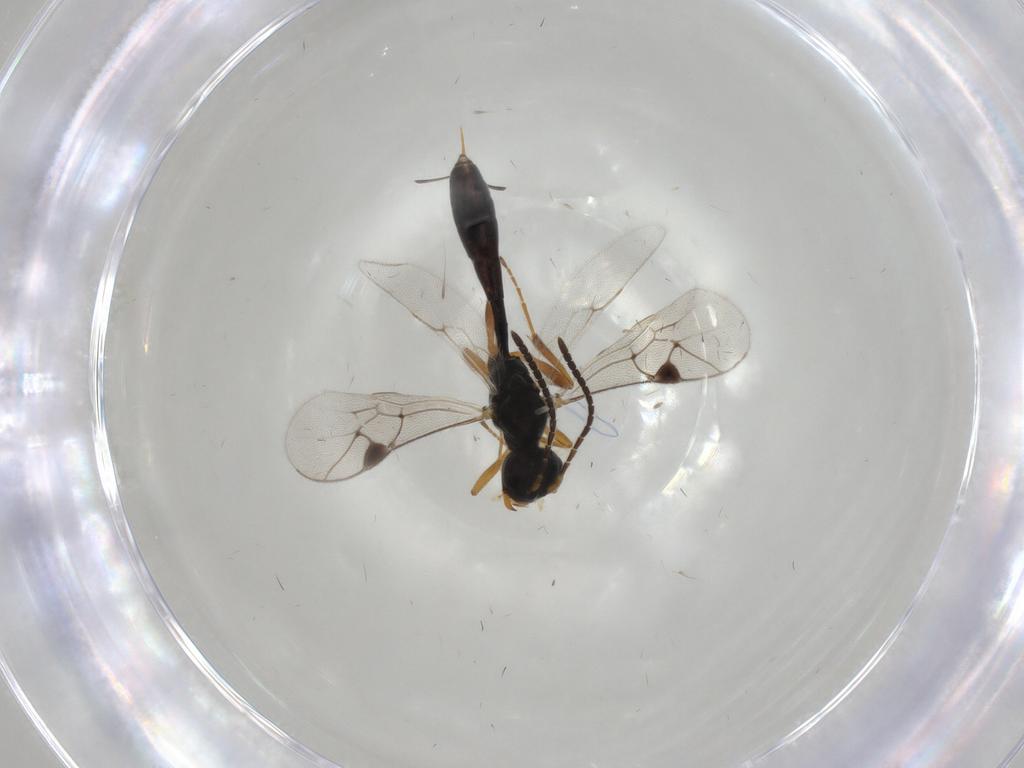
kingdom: Animalia
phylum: Arthropoda
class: Insecta
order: Hymenoptera
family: Ichneumonidae
